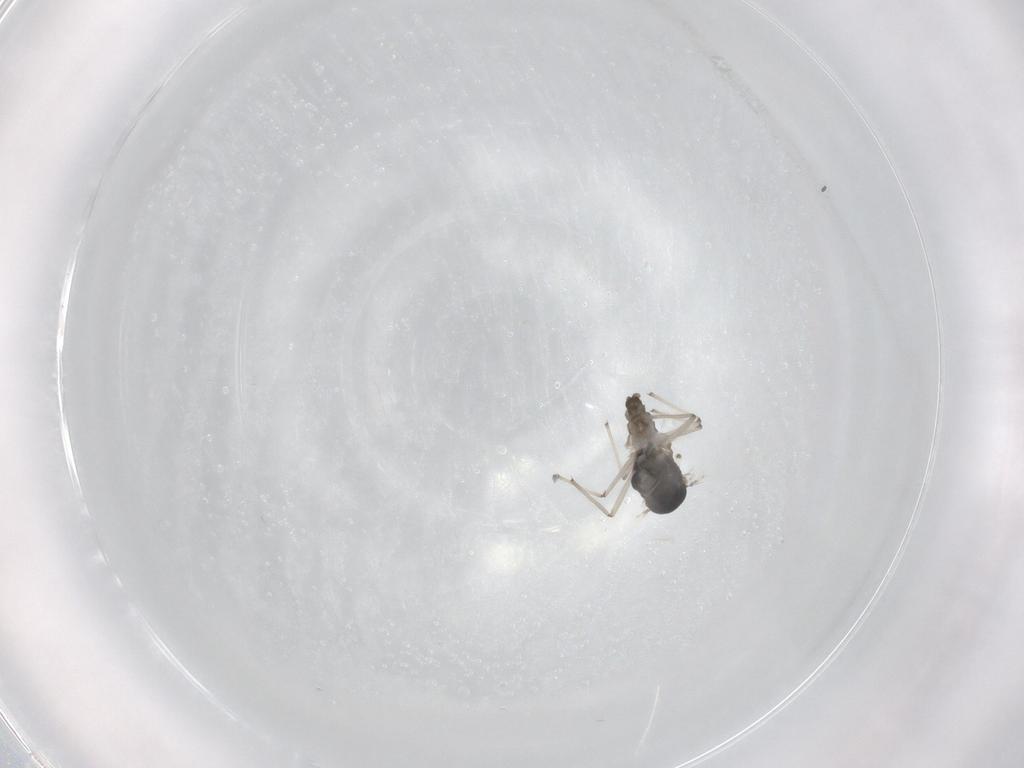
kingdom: Animalia
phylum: Arthropoda
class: Insecta
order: Diptera
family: Chironomidae
